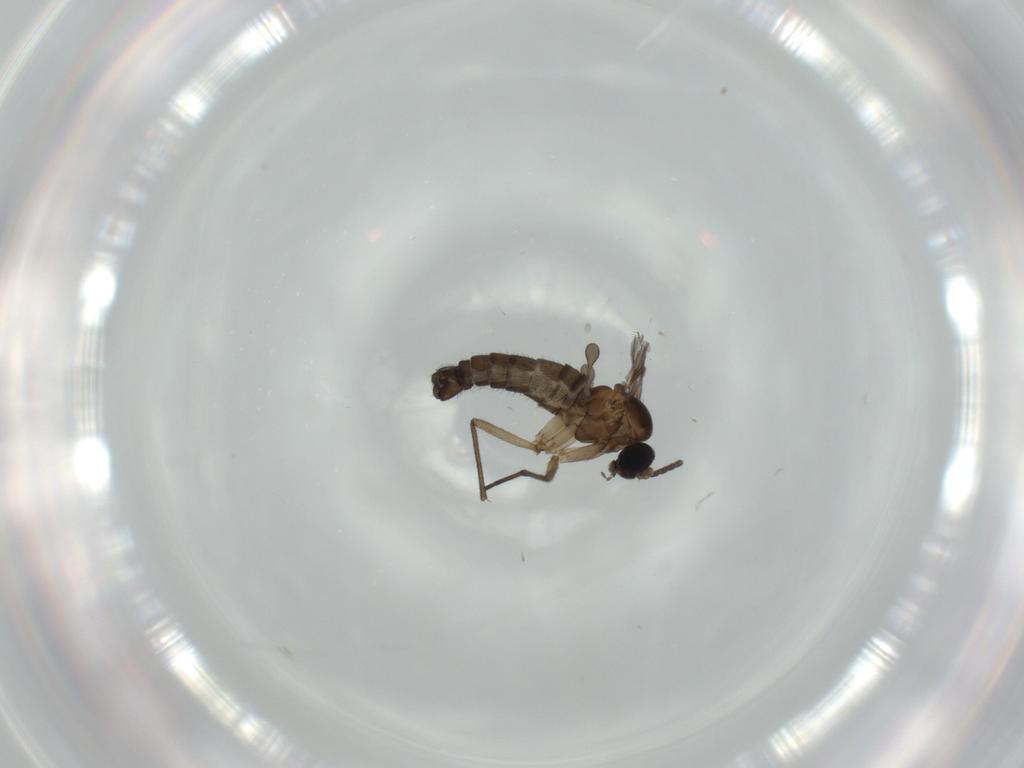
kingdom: Animalia
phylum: Arthropoda
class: Insecta
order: Diptera
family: Sciaridae
